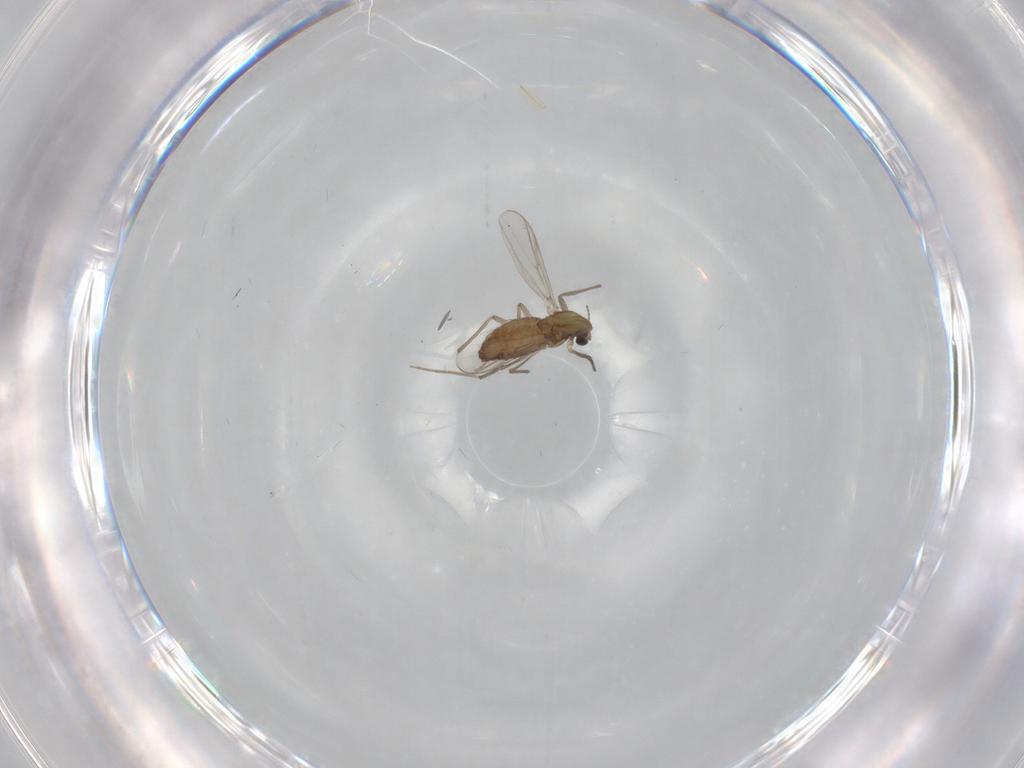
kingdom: Animalia
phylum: Arthropoda
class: Insecta
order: Diptera
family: Chironomidae
